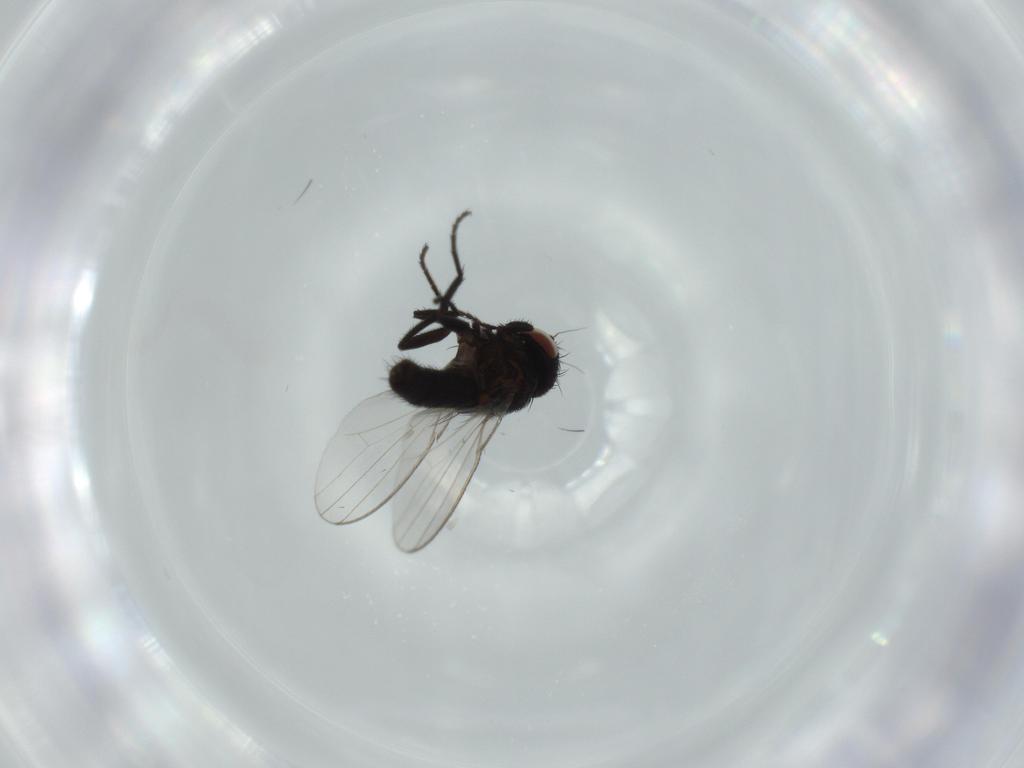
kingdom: Animalia
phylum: Arthropoda
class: Insecta
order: Diptera
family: Milichiidae
